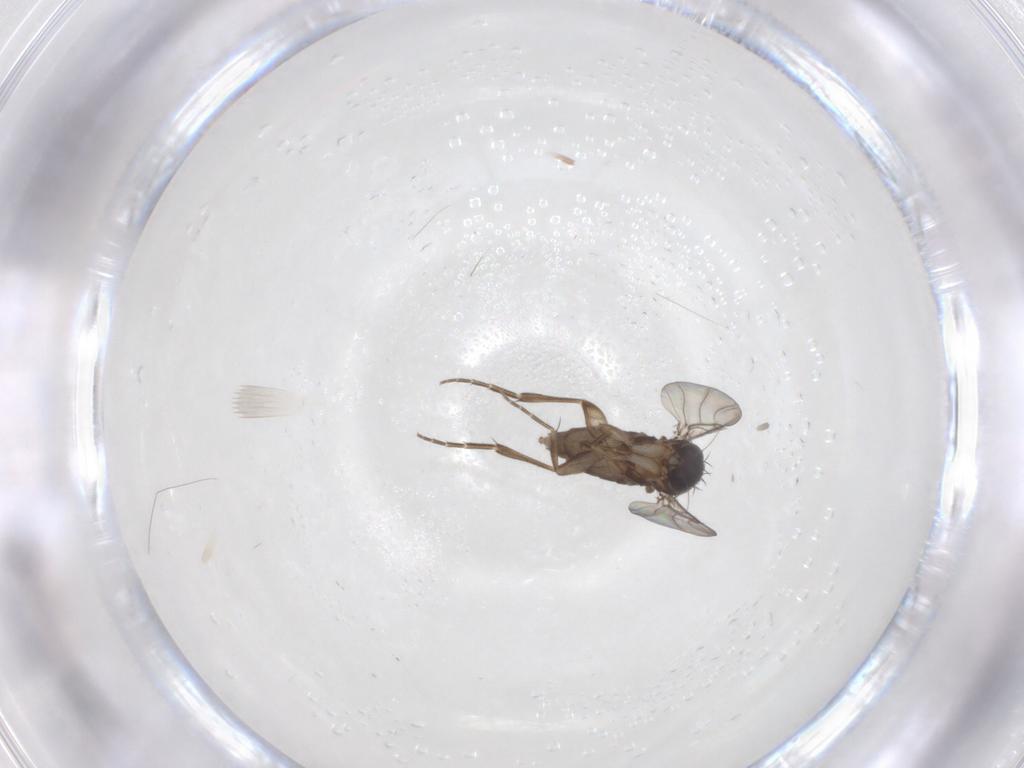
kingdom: Animalia
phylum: Arthropoda
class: Insecta
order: Diptera
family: Phoridae
